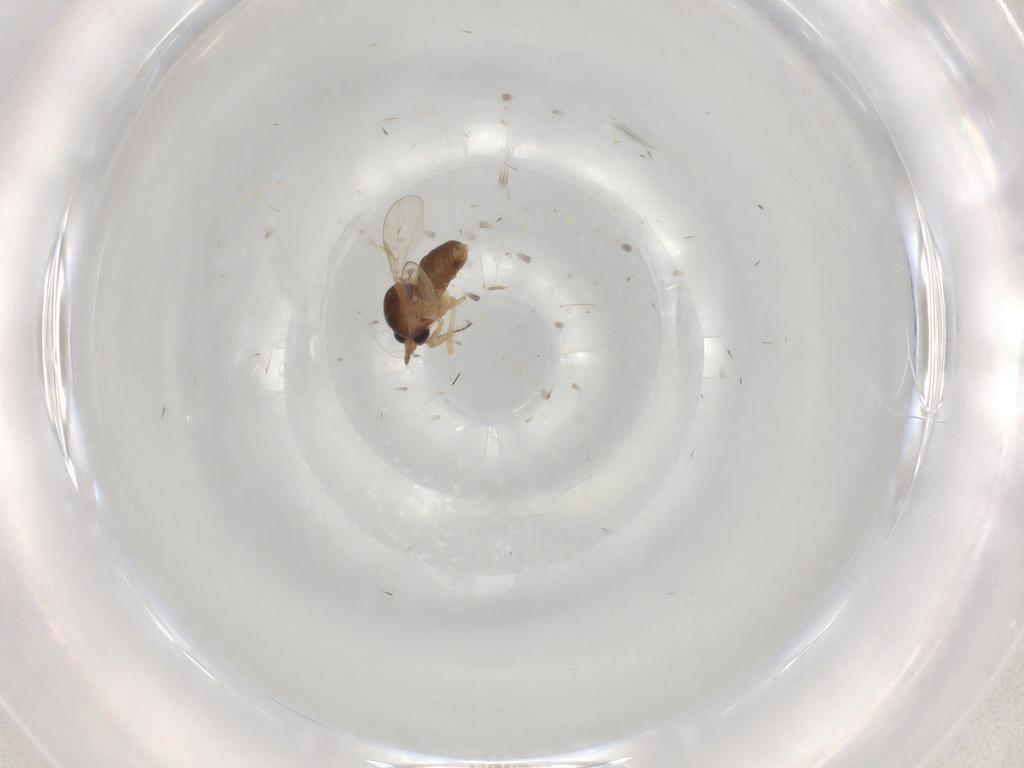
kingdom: Animalia
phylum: Arthropoda
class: Insecta
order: Diptera
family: Ceratopogonidae
